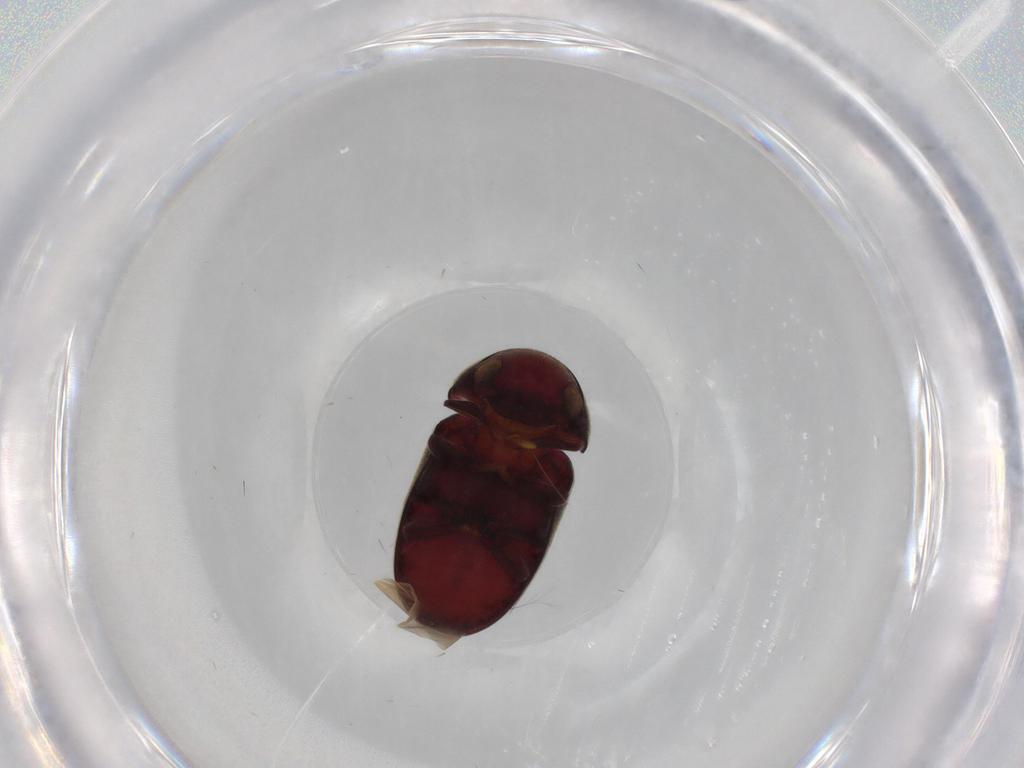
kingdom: Animalia
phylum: Arthropoda
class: Insecta
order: Coleoptera
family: Ptinidae
